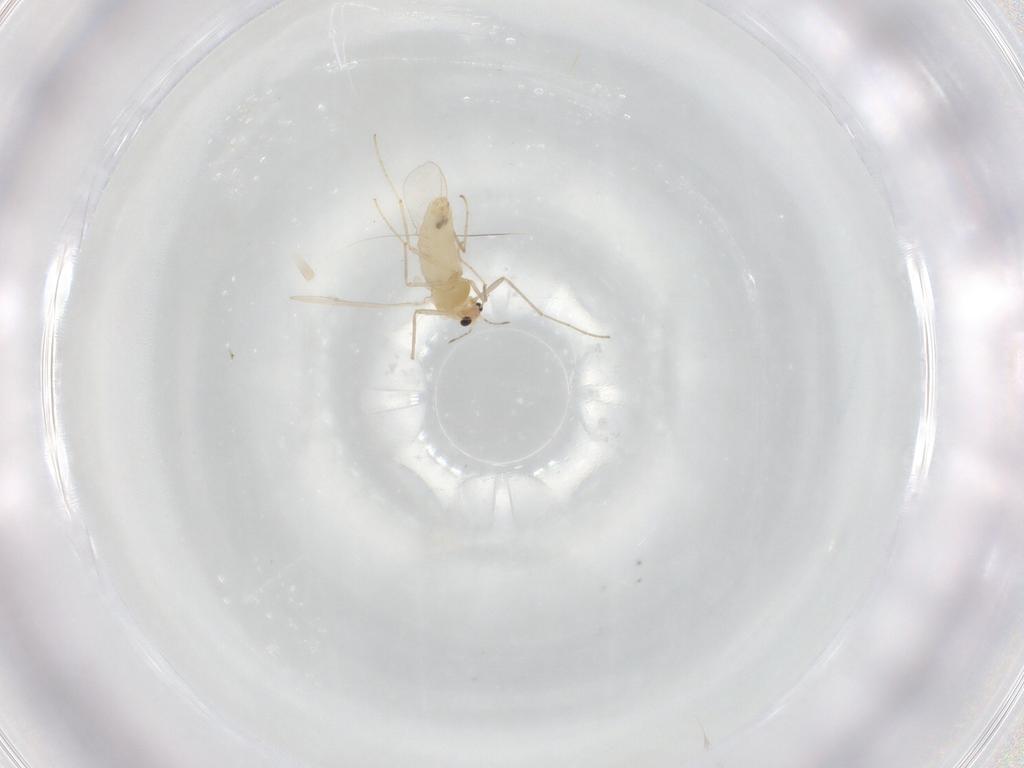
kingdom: Animalia
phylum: Arthropoda
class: Insecta
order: Diptera
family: Chironomidae
